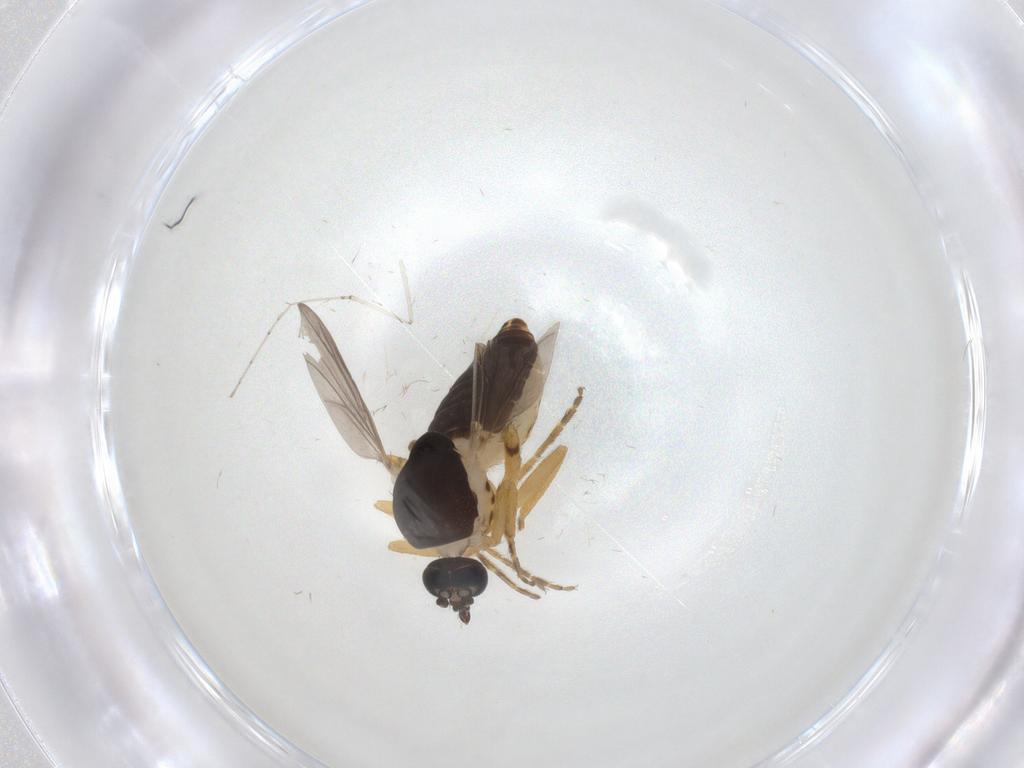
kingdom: Animalia
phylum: Arthropoda
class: Insecta
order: Diptera
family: Ceratopogonidae
